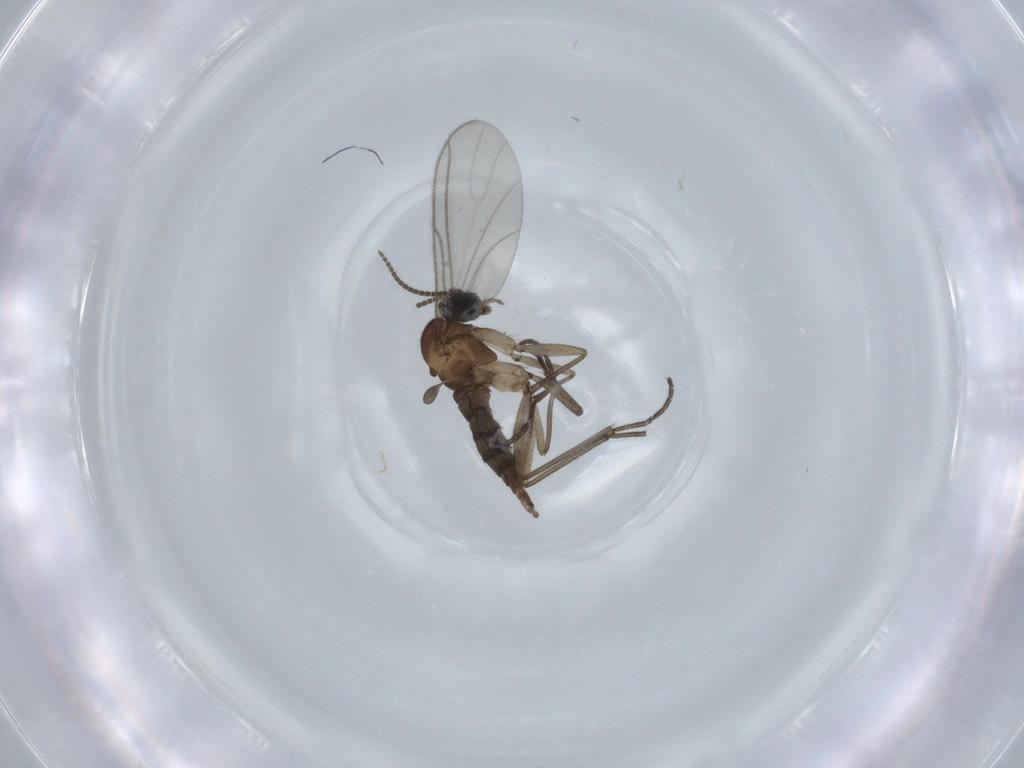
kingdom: Animalia
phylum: Arthropoda
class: Insecta
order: Diptera
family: Sciaridae
